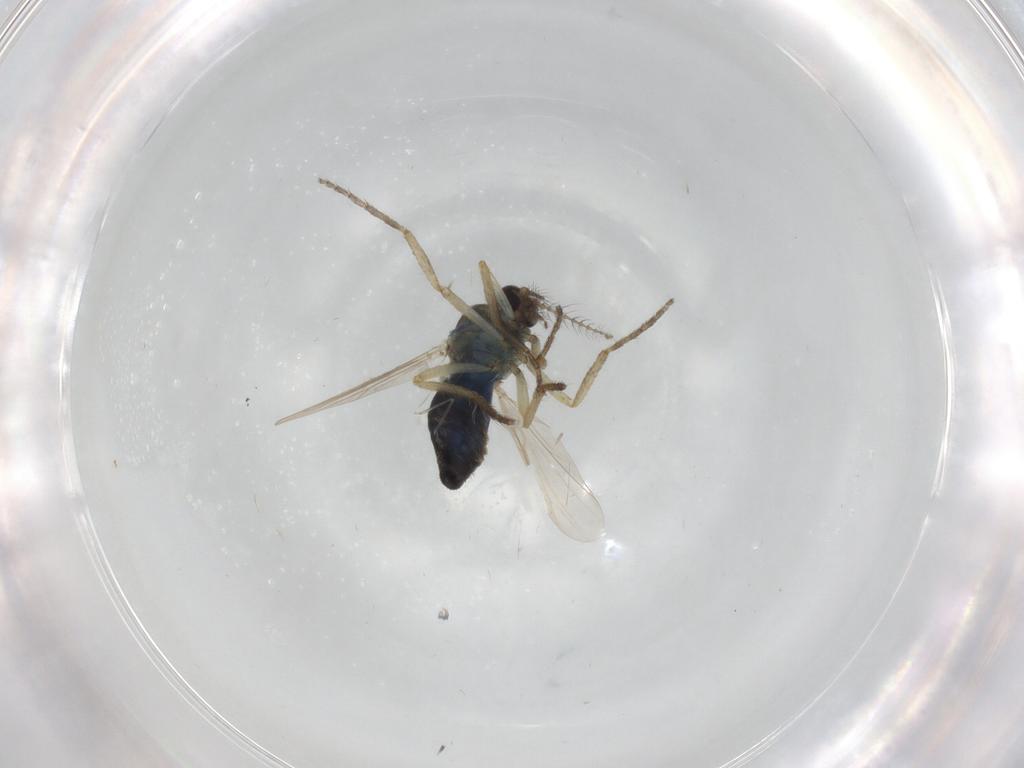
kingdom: Animalia
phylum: Arthropoda
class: Insecta
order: Diptera
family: Ceratopogonidae
